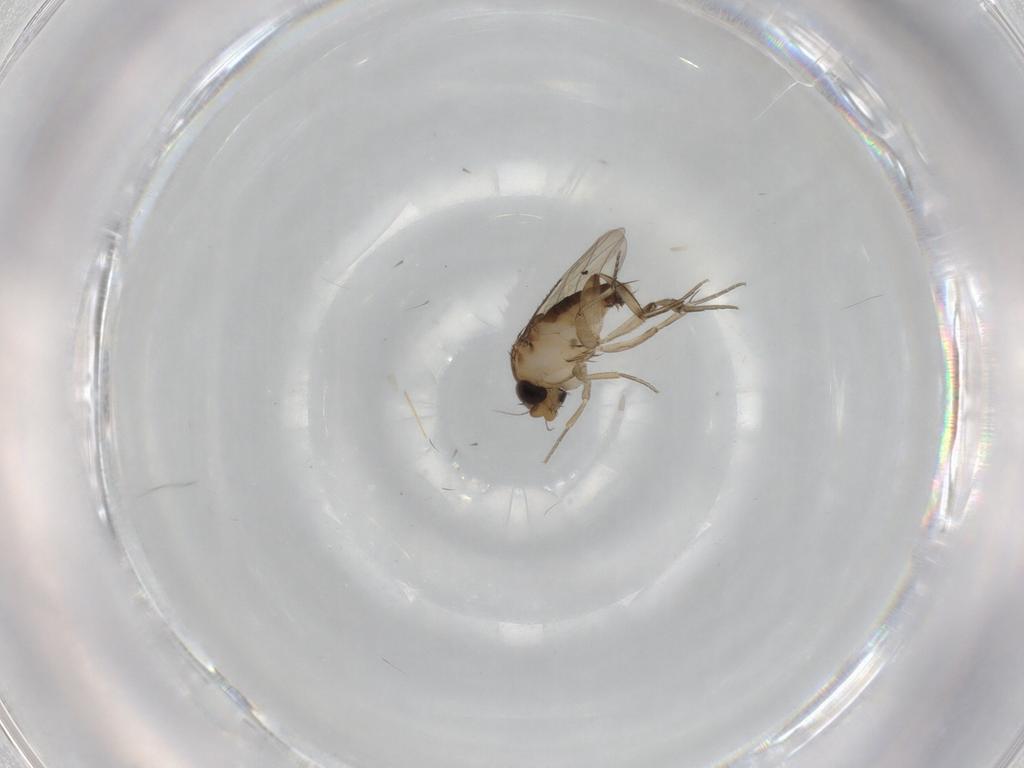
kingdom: Animalia
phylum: Arthropoda
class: Insecta
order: Diptera
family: Phoridae
